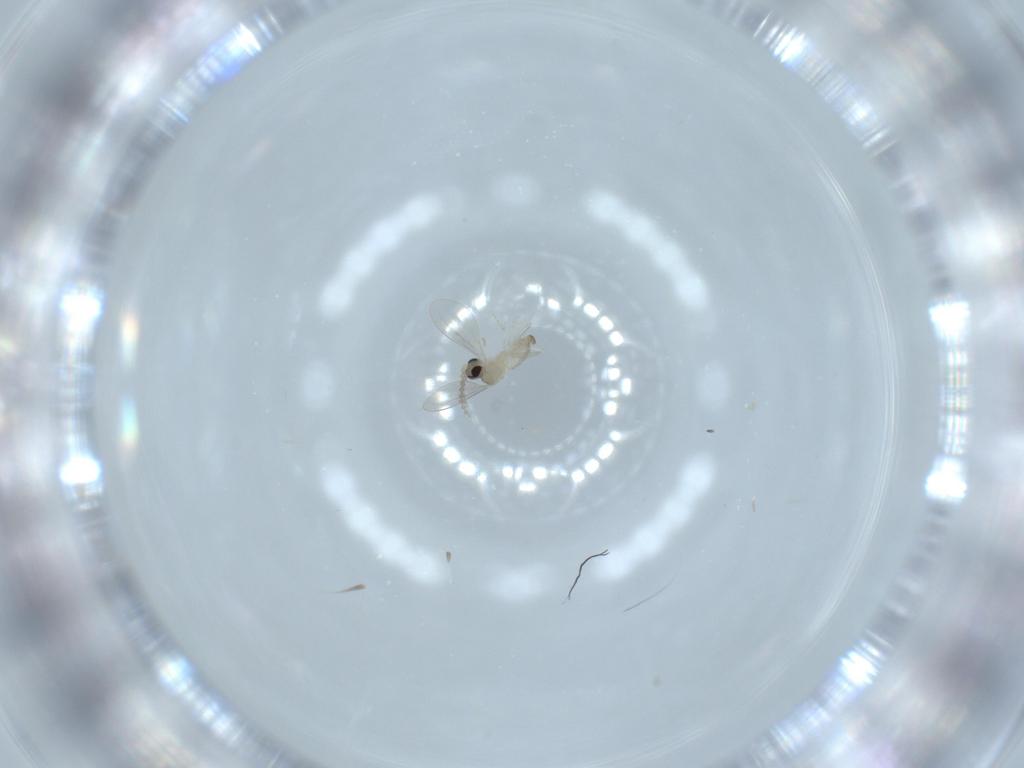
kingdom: Animalia
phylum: Arthropoda
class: Insecta
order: Diptera
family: Cecidomyiidae
